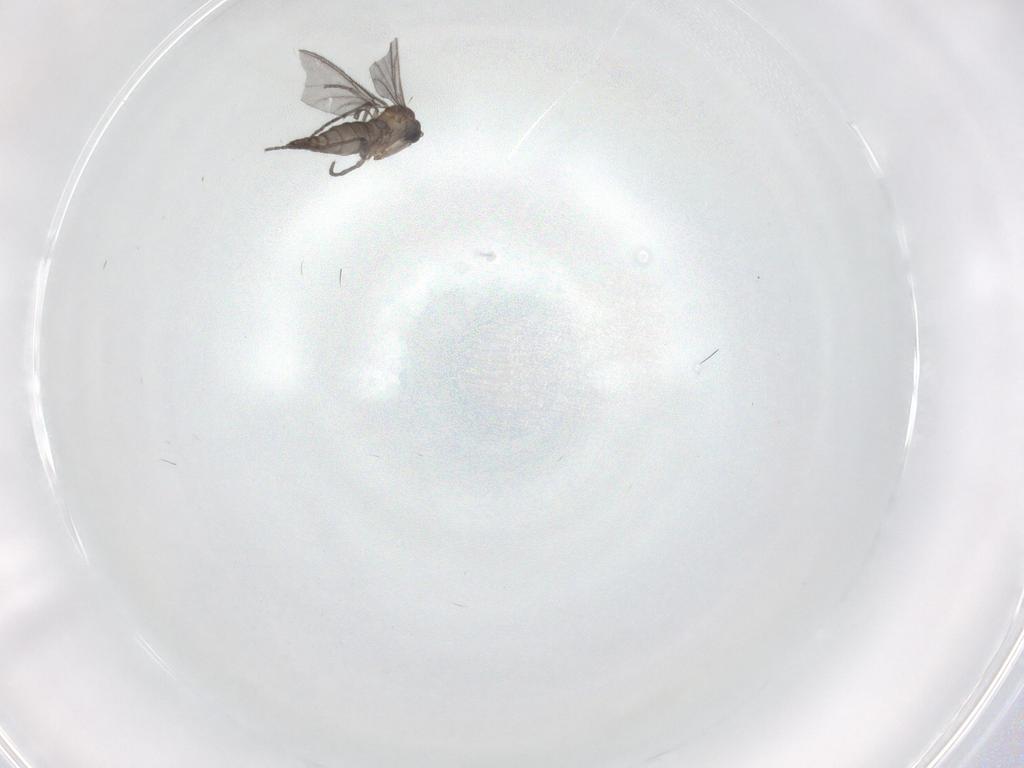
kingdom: Animalia
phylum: Arthropoda
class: Insecta
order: Diptera
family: Sciaridae
